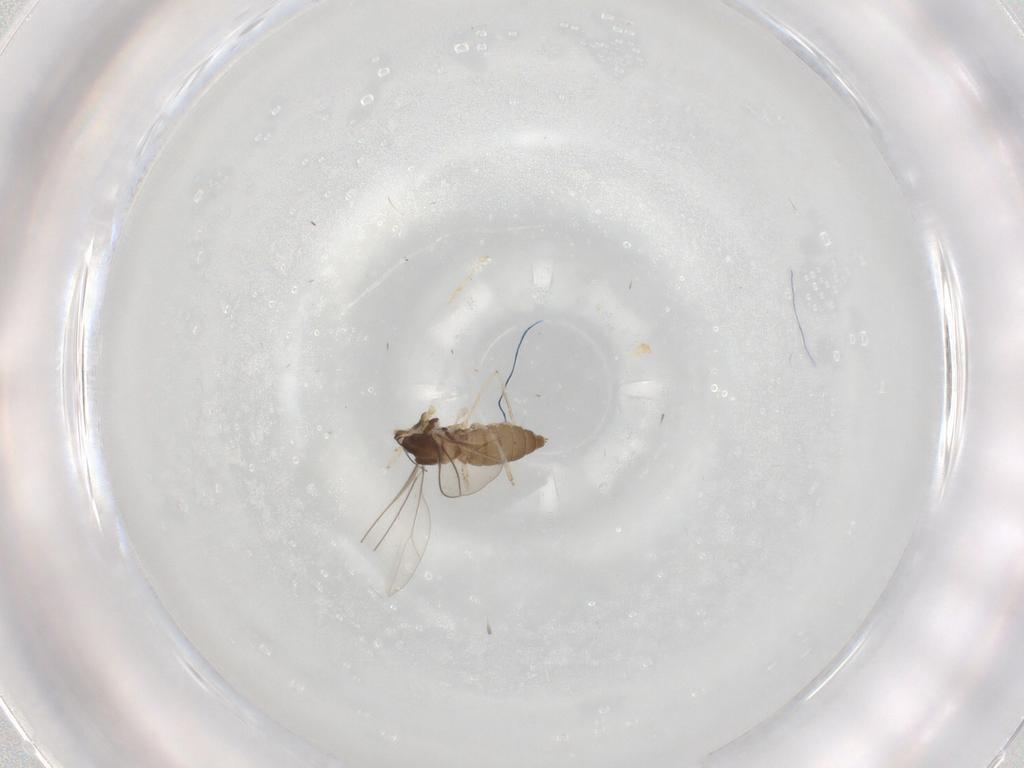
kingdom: Animalia
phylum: Arthropoda
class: Insecta
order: Diptera
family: Cecidomyiidae
